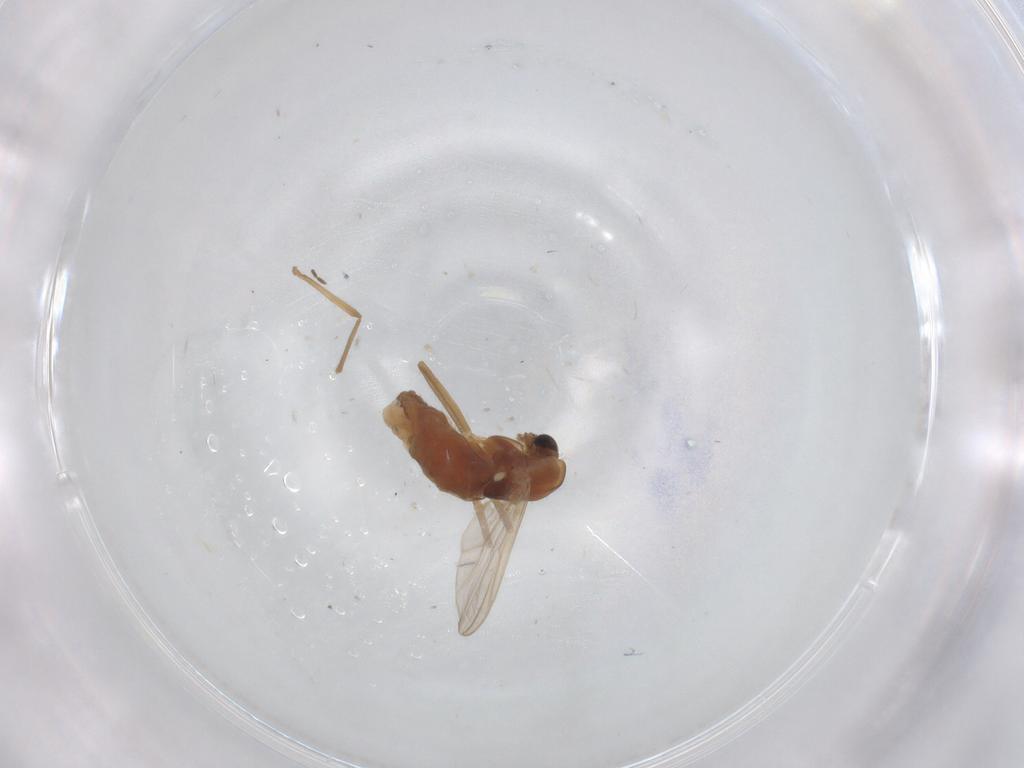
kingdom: Animalia
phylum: Arthropoda
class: Insecta
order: Diptera
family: Chironomidae
